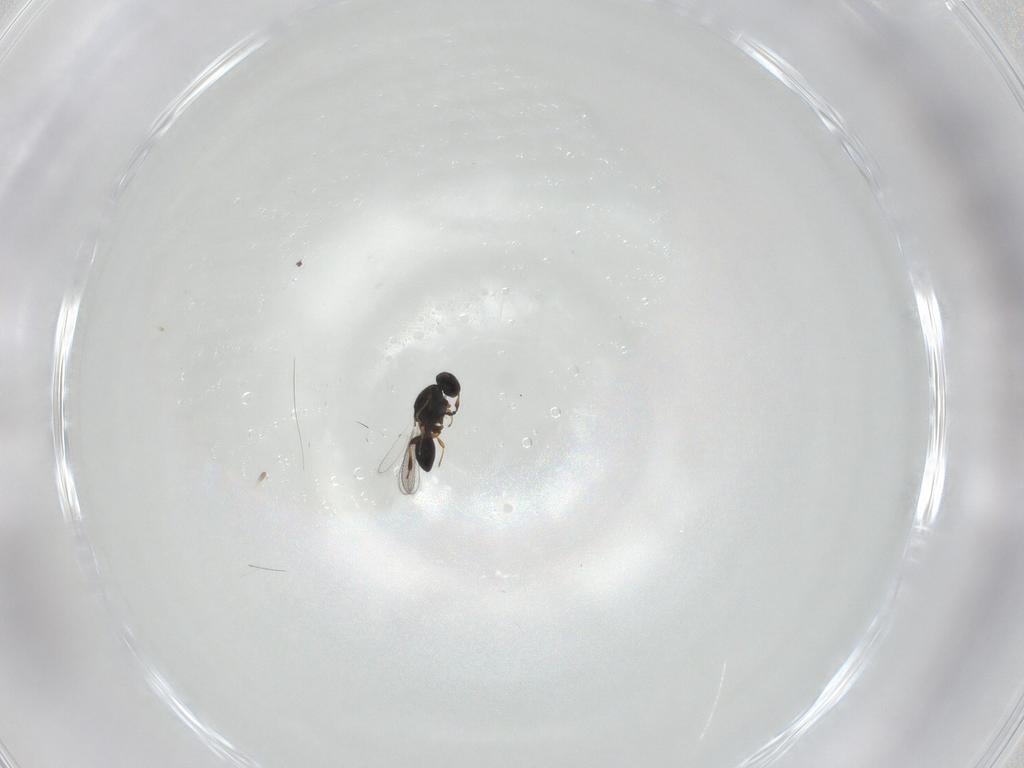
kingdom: Animalia
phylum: Arthropoda
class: Insecta
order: Hymenoptera
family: Platygastridae
